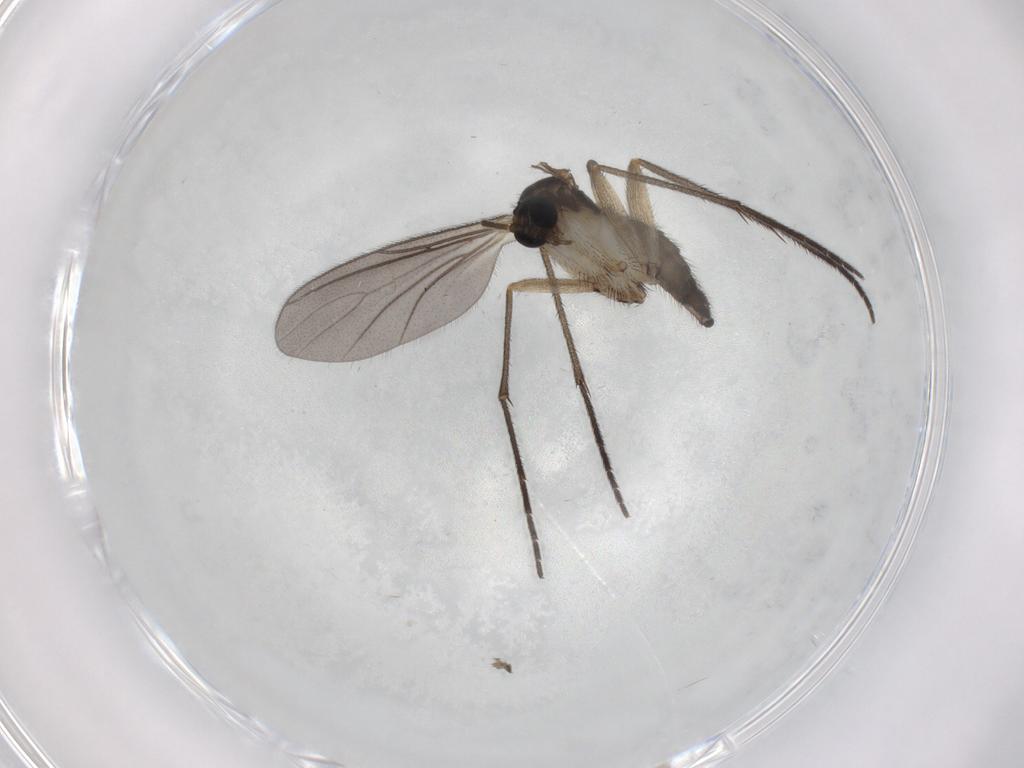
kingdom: Animalia
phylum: Arthropoda
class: Insecta
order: Diptera
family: Sciaridae
